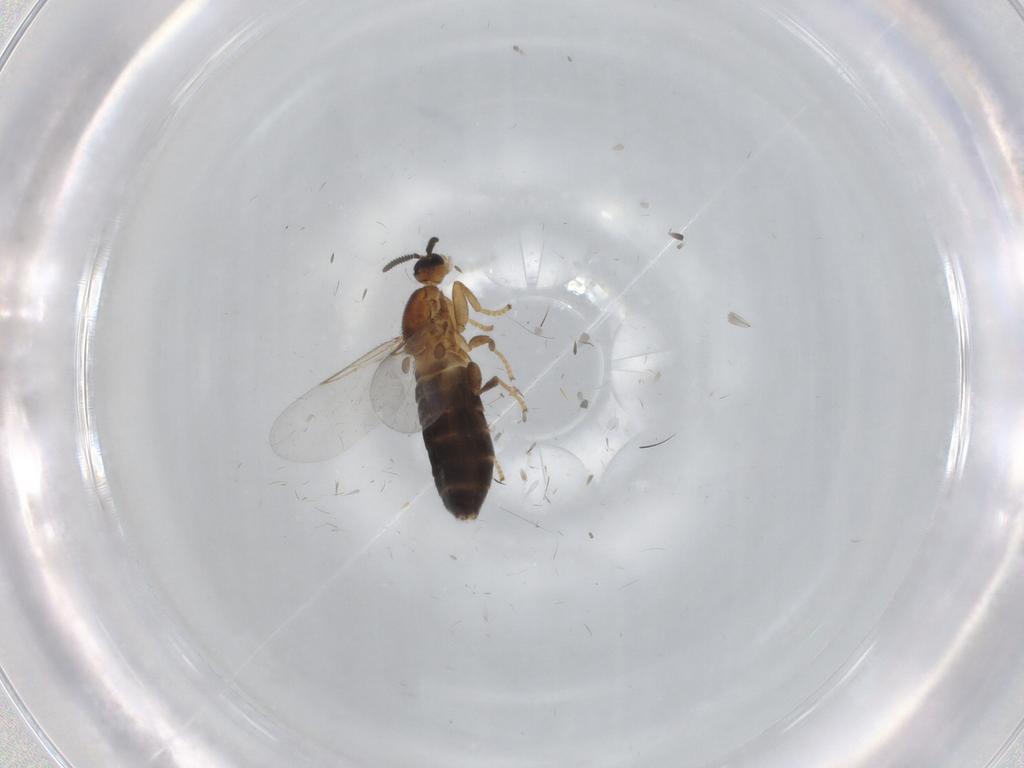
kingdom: Animalia
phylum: Arthropoda
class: Insecta
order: Diptera
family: Scatopsidae
